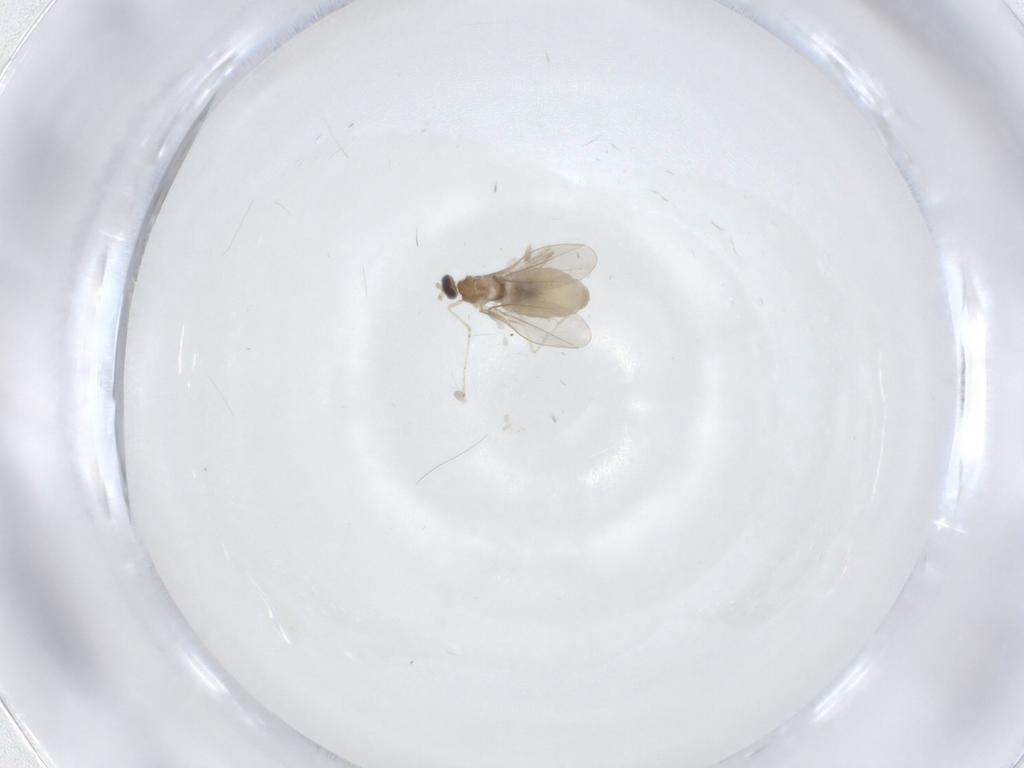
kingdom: Animalia
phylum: Arthropoda
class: Insecta
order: Diptera
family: Cecidomyiidae
